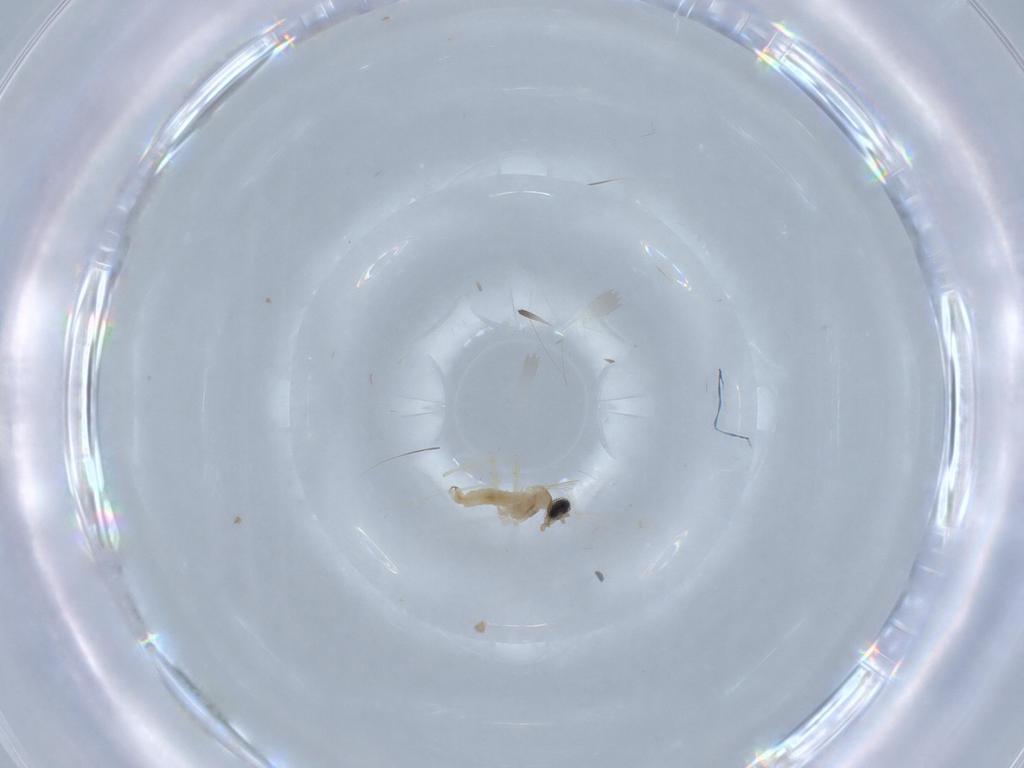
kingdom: Animalia
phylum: Arthropoda
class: Insecta
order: Diptera
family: Cecidomyiidae
